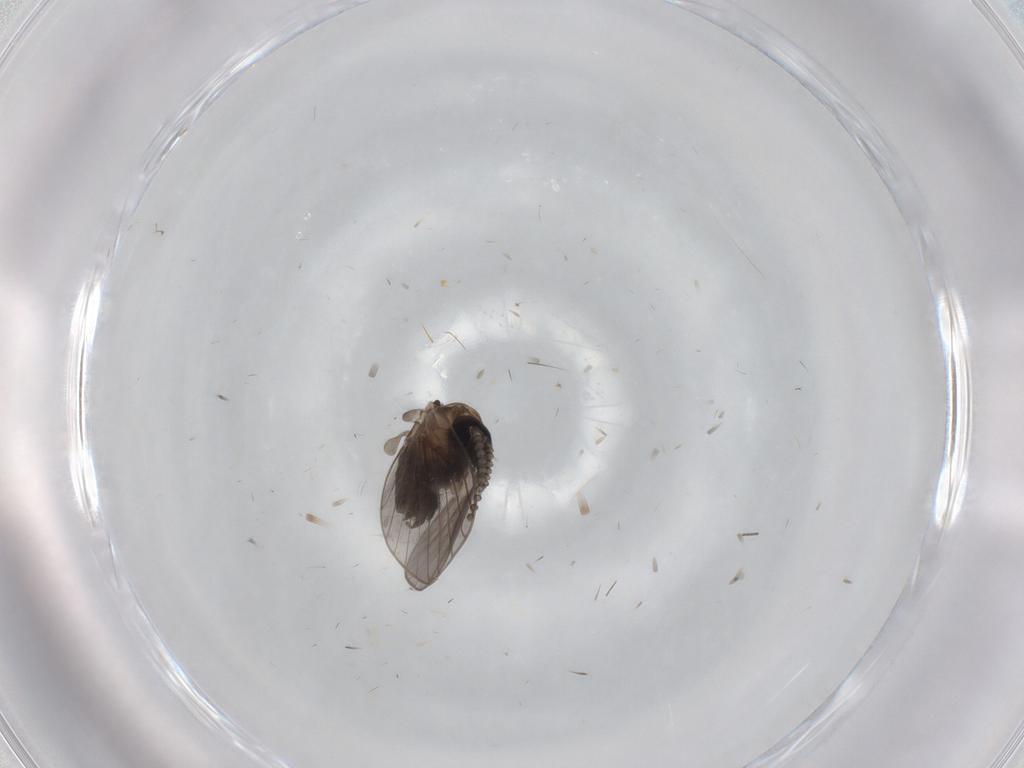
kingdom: Animalia
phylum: Arthropoda
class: Insecta
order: Diptera
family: Psychodidae
